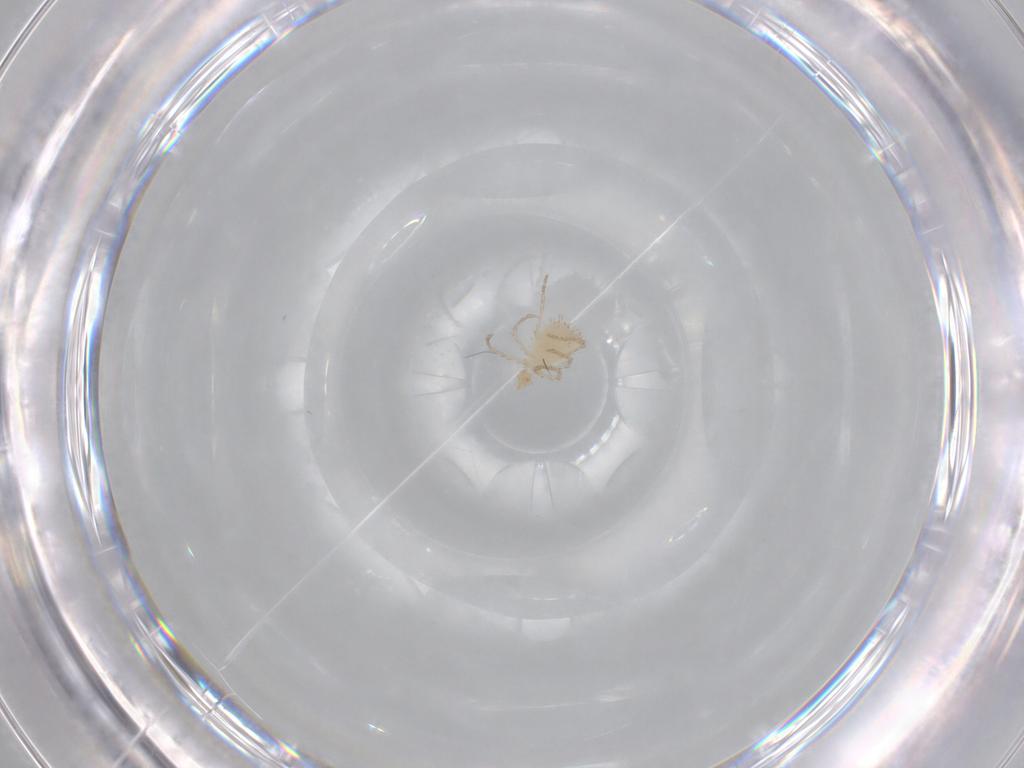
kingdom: Animalia
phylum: Arthropoda
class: Arachnida
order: Trombidiformes
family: Erythraeidae
